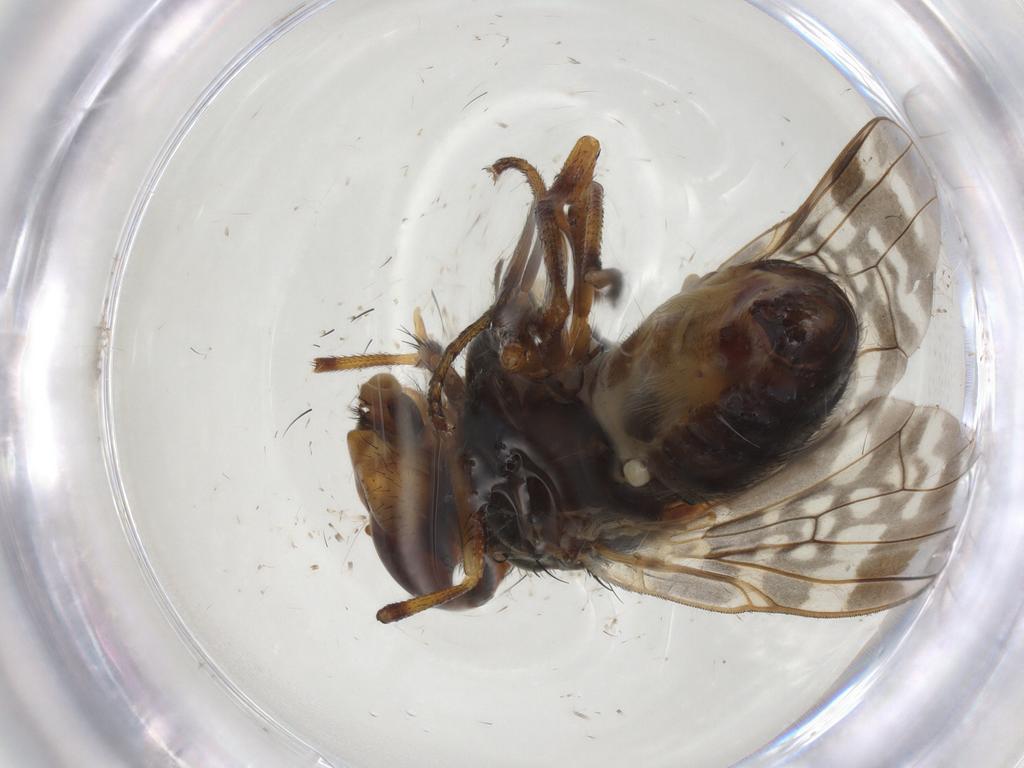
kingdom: Animalia
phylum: Arthropoda
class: Insecta
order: Diptera
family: Dolichopodidae
